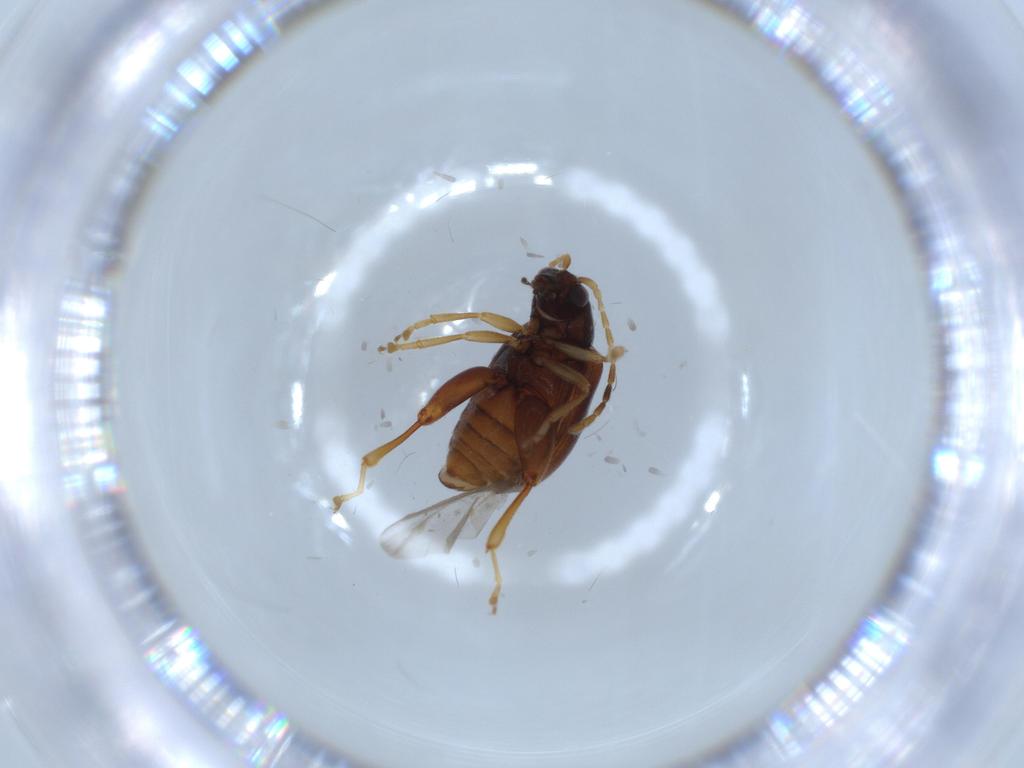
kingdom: Animalia
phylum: Arthropoda
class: Insecta
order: Coleoptera
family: Chrysomelidae
